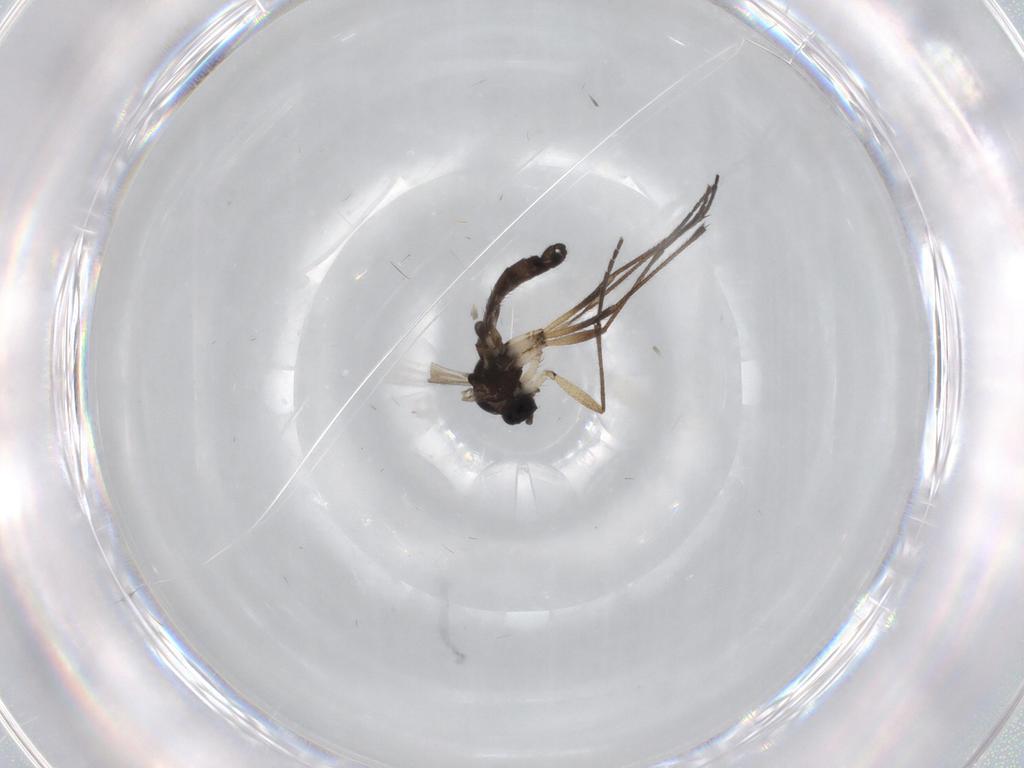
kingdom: Animalia
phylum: Arthropoda
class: Insecta
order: Diptera
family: Sciaridae
